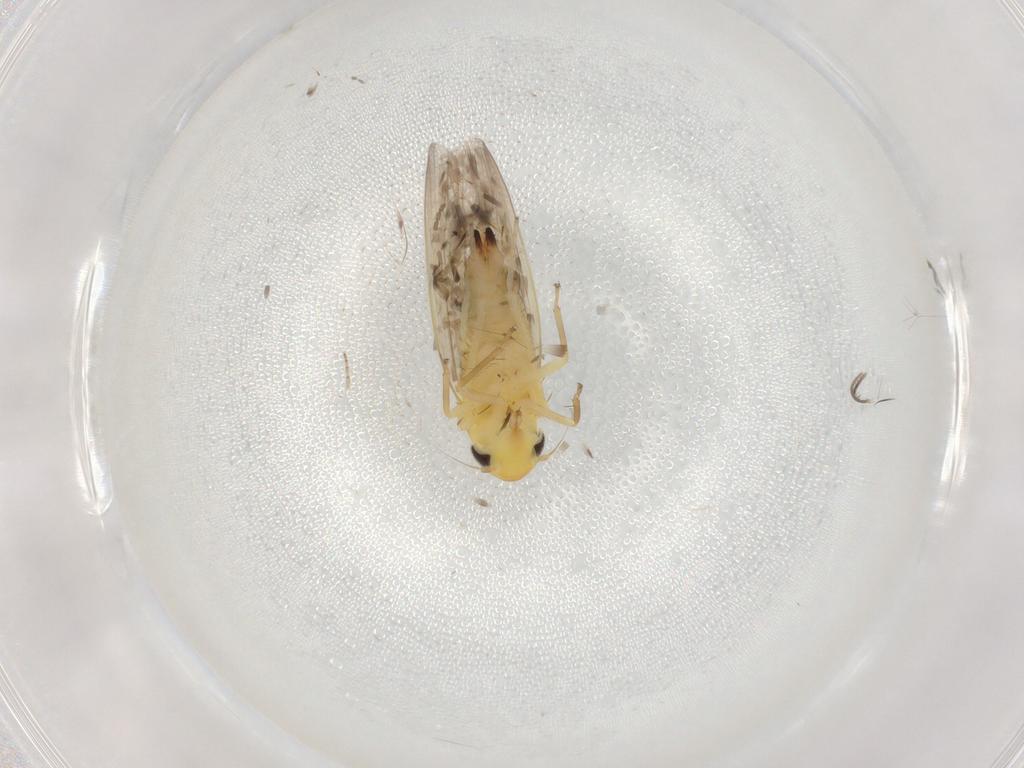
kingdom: Animalia
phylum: Arthropoda
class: Insecta
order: Hemiptera
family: Cicadellidae
